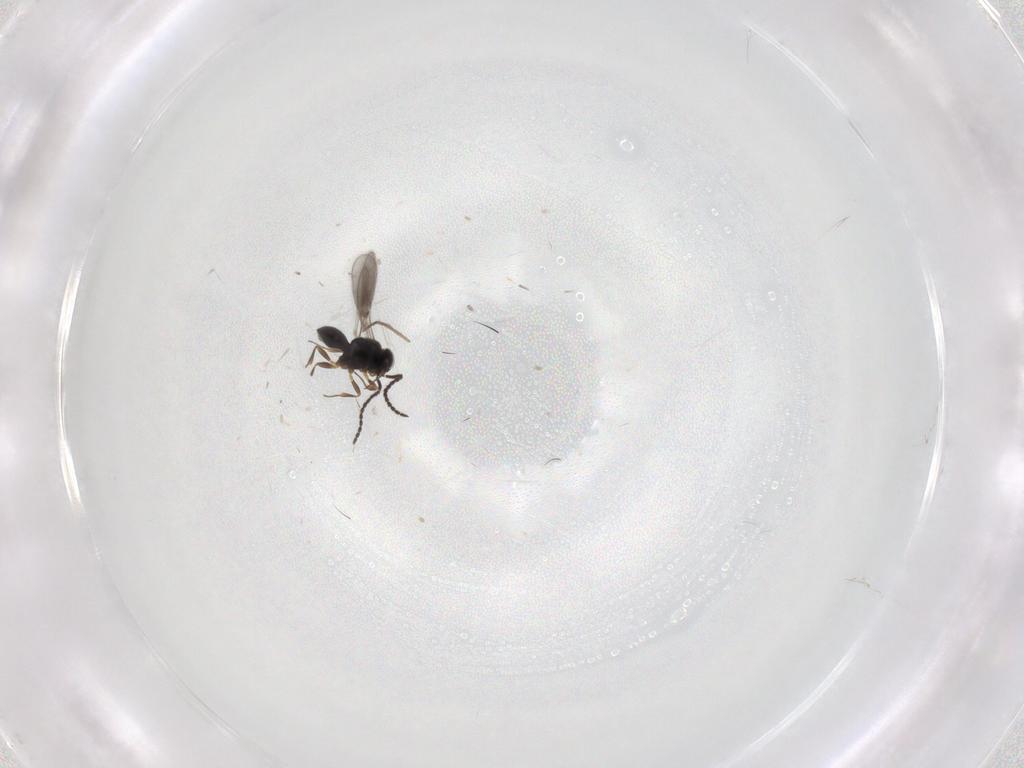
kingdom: Animalia
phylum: Arthropoda
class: Insecta
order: Hymenoptera
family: Scelionidae
